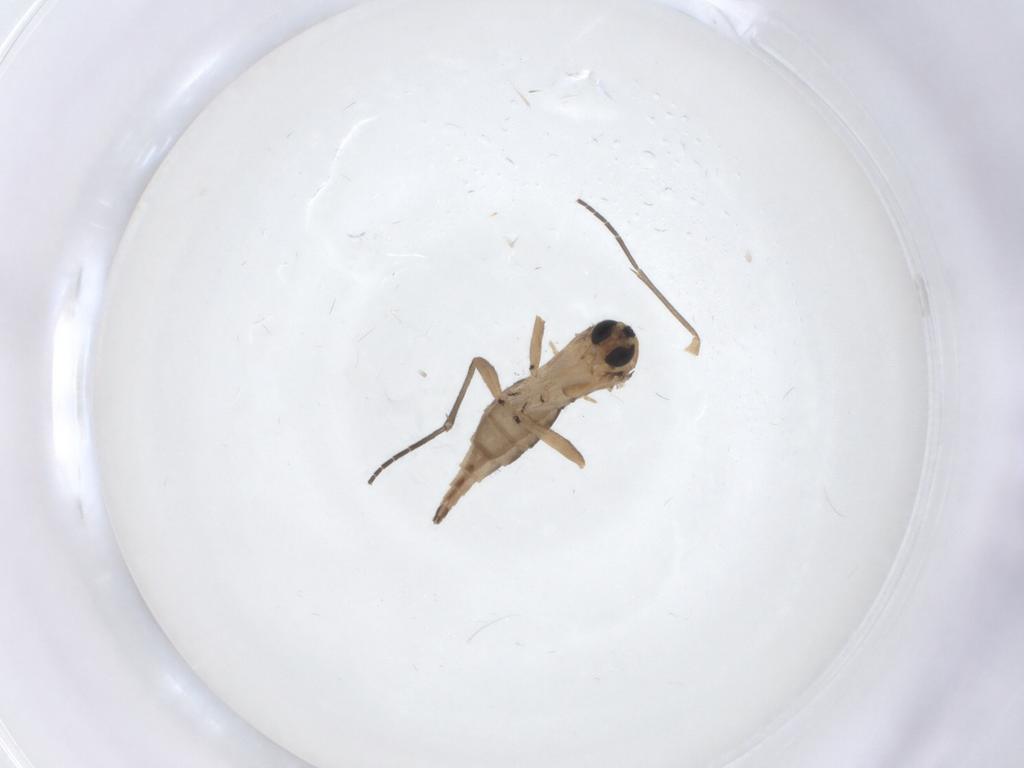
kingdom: Animalia
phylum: Arthropoda
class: Insecta
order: Diptera
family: Sciaridae
